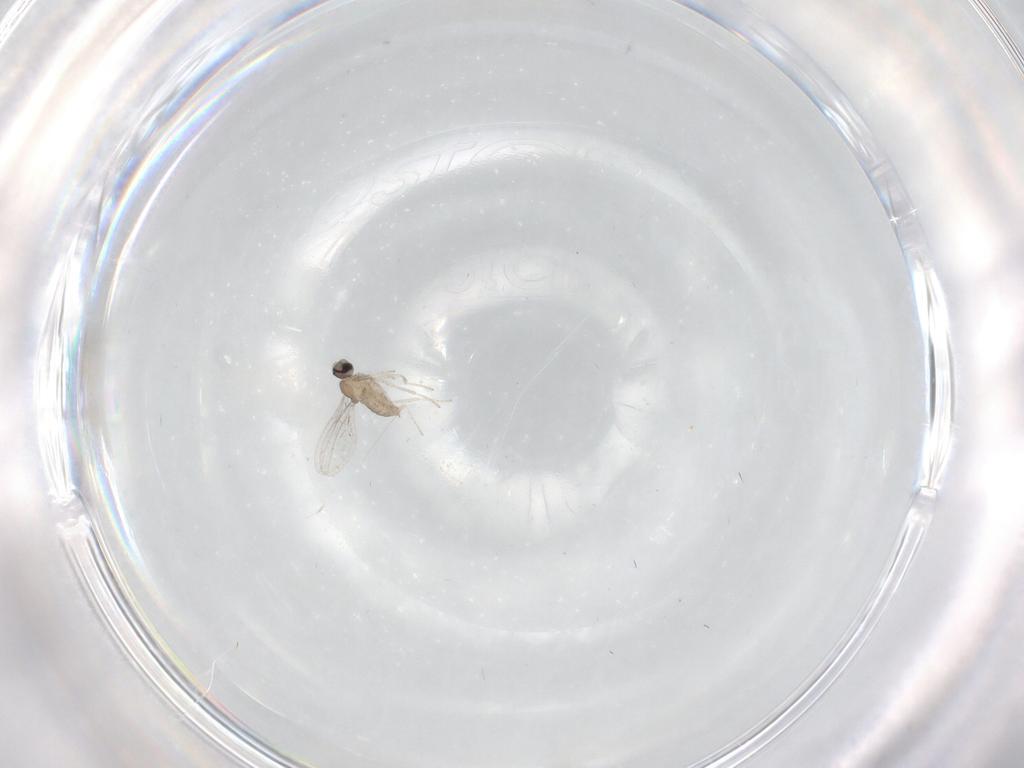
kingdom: Animalia
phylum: Arthropoda
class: Insecta
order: Diptera
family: Cecidomyiidae
